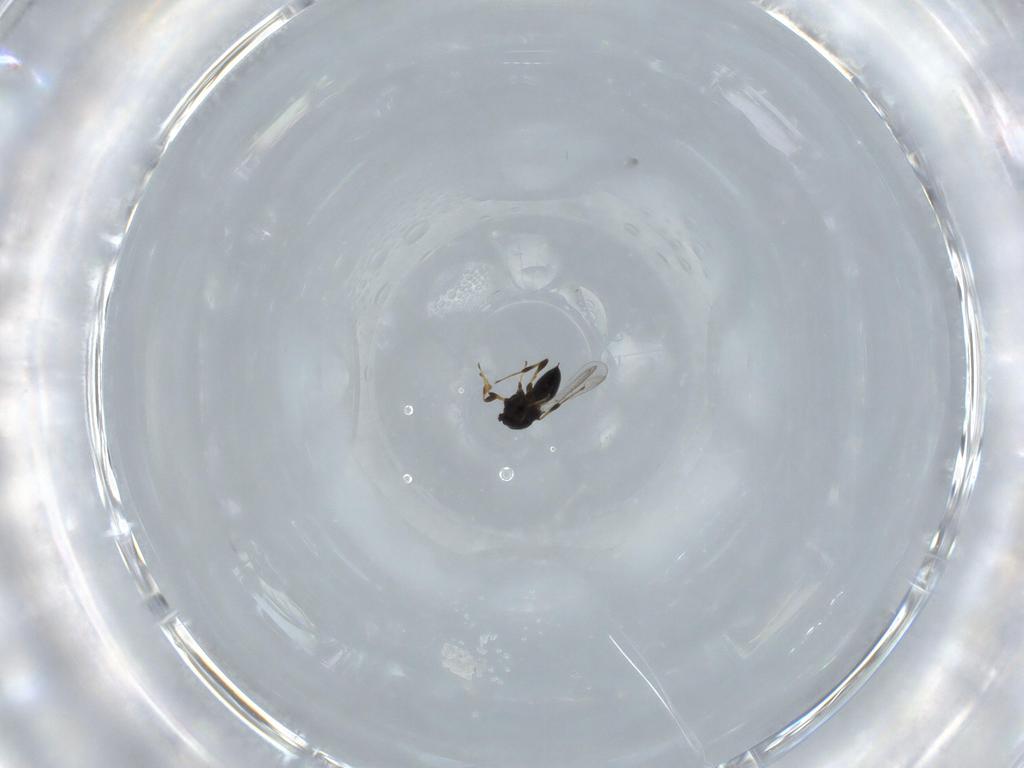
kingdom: Animalia
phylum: Arthropoda
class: Insecta
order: Hymenoptera
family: Platygastridae
